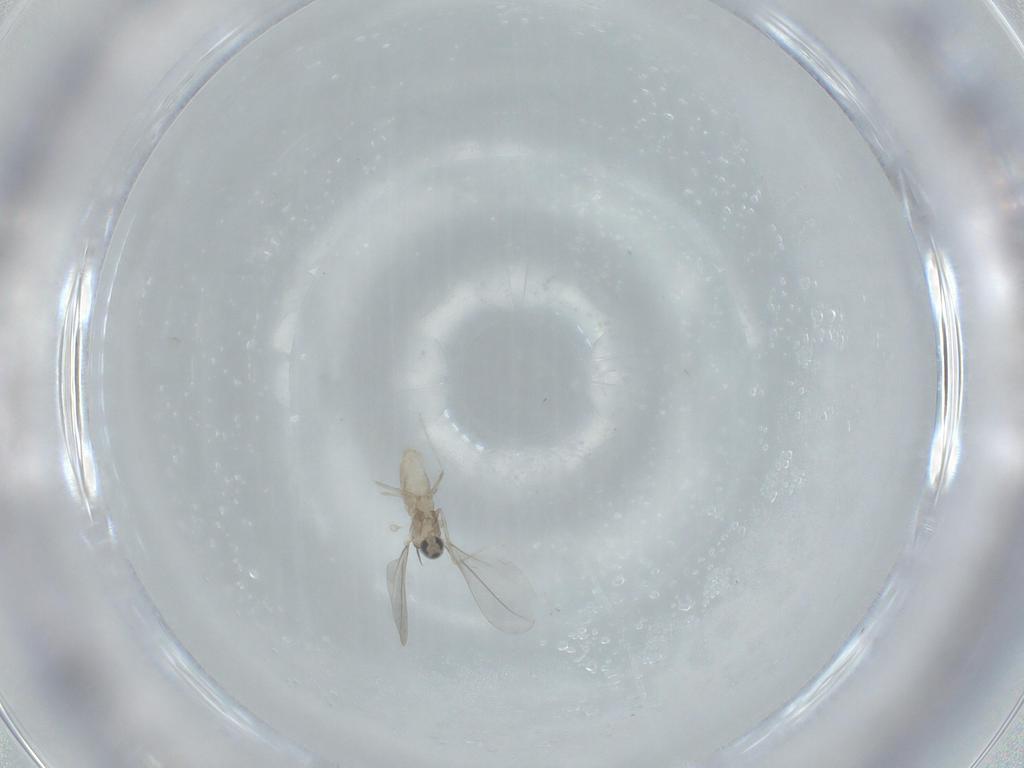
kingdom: Animalia
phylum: Arthropoda
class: Insecta
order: Diptera
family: Cecidomyiidae
